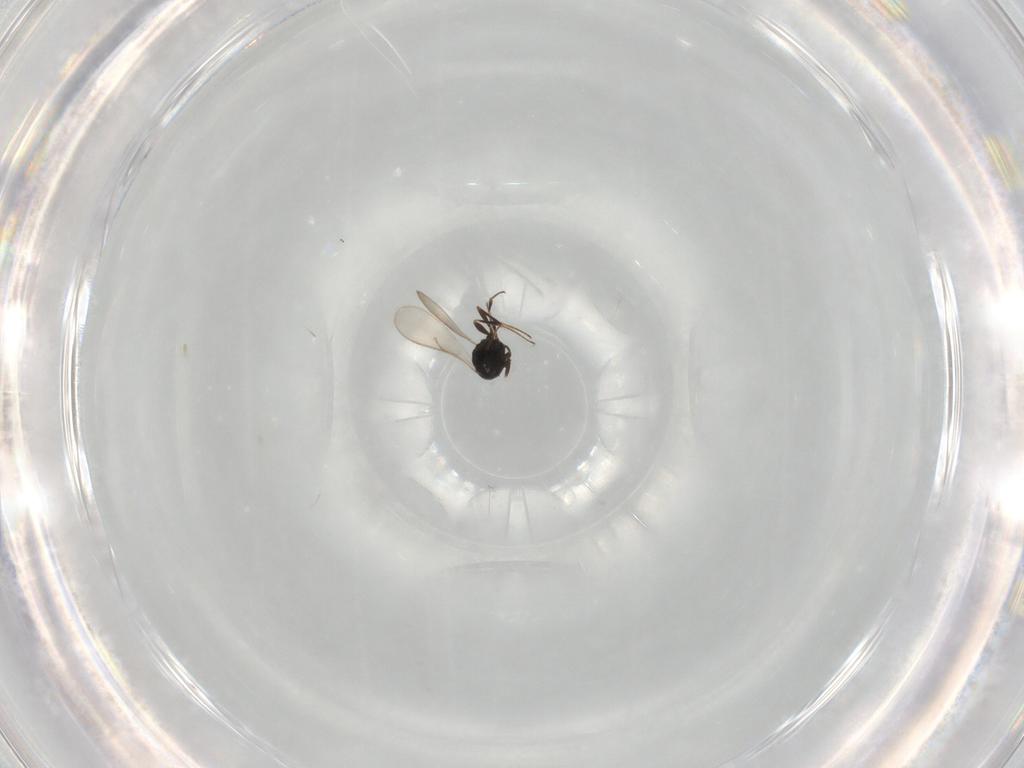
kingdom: Animalia
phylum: Arthropoda
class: Insecta
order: Hymenoptera
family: Scelionidae
